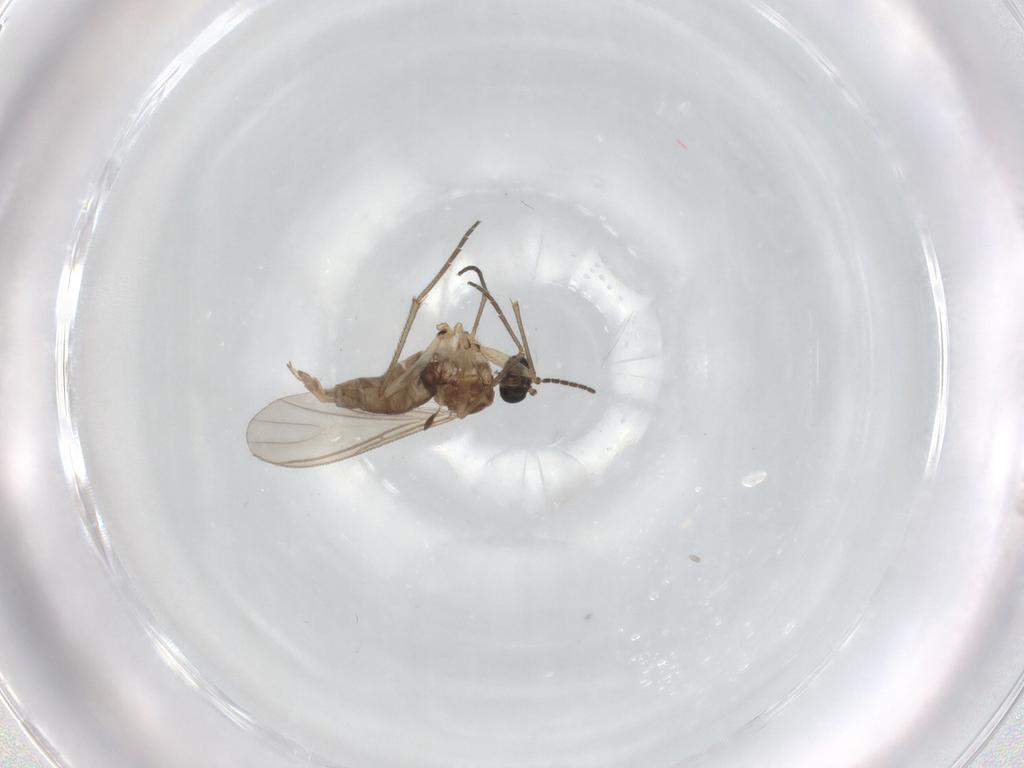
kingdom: Animalia
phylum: Arthropoda
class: Insecta
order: Diptera
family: Sciaridae
